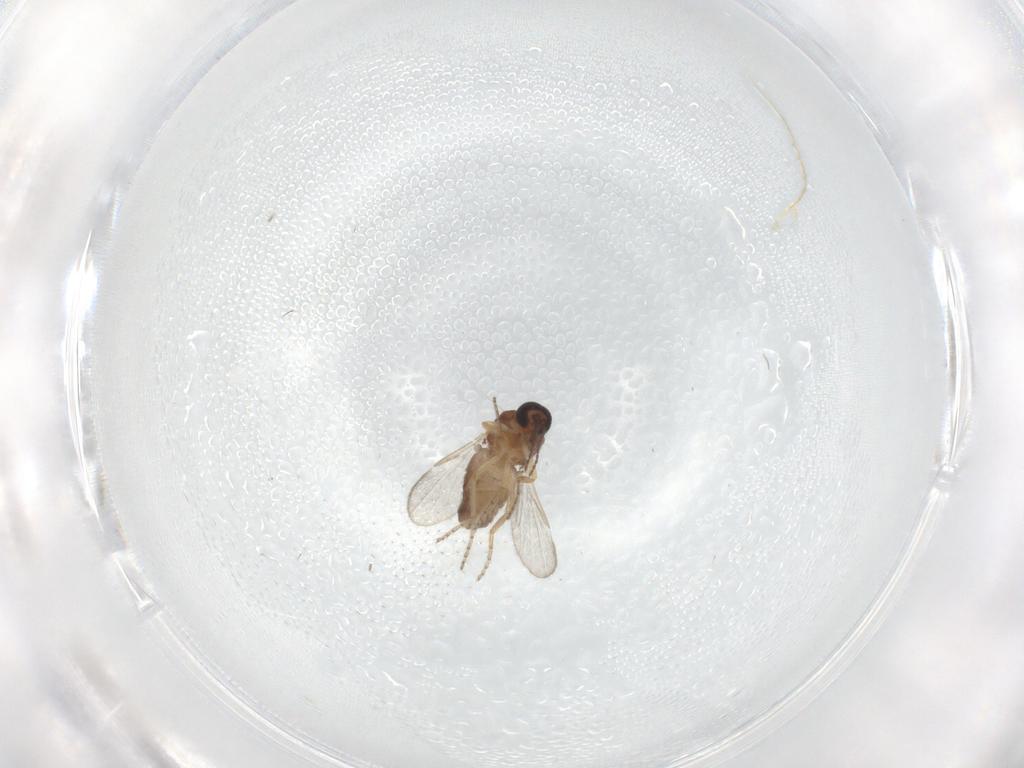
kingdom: Animalia
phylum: Arthropoda
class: Insecta
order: Diptera
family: Ceratopogonidae
